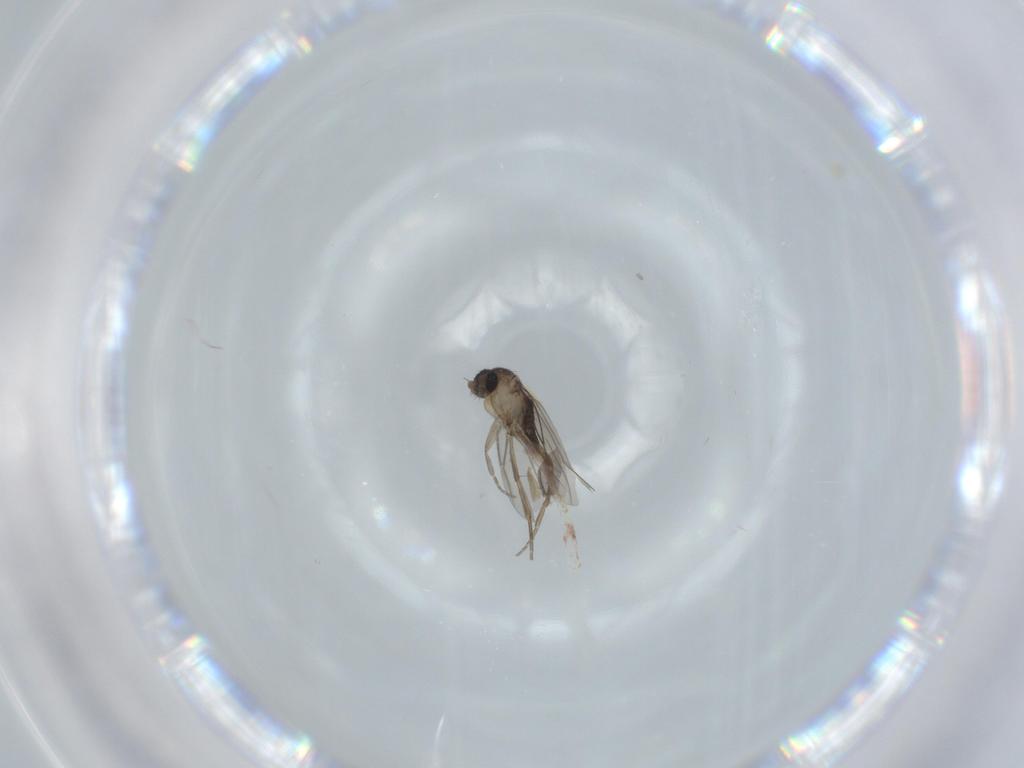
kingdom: Animalia
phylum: Arthropoda
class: Insecta
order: Diptera
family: Phoridae
